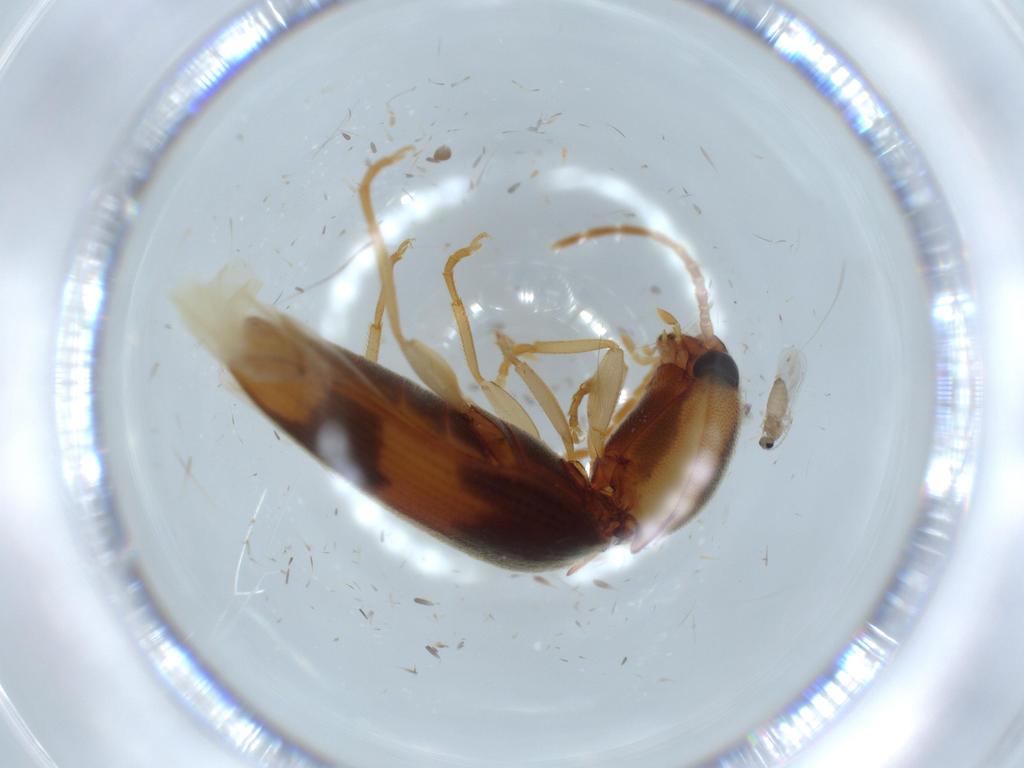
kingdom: Animalia
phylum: Arthropoda
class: Insecta
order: Coleoptera
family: Elateridae
